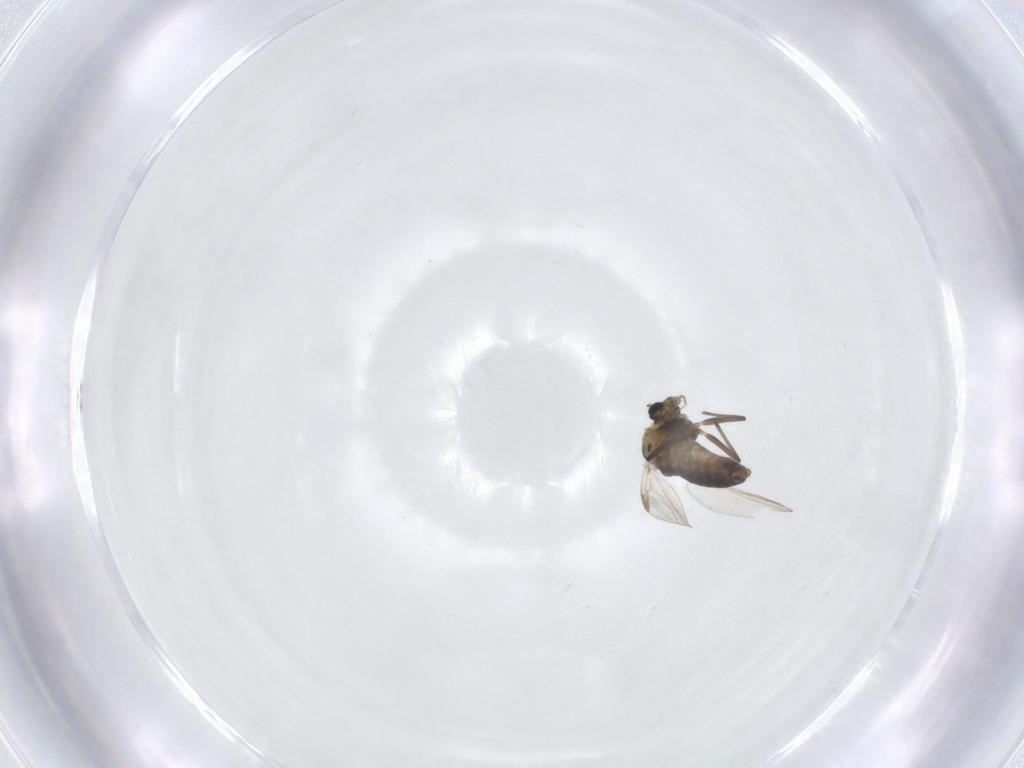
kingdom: Animalia
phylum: Arthropoda
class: Insecta
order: Diptera
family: Chironomidae
